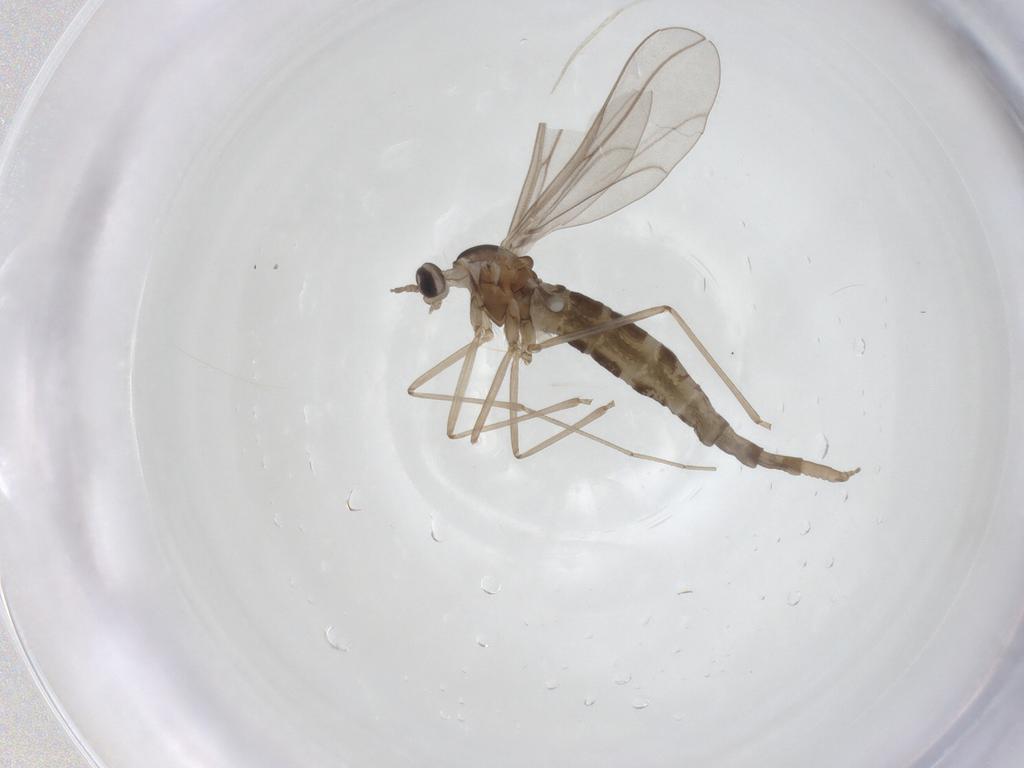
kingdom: Animalia
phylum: Arthropoda
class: Insecta
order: Diptera
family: Cecidomyiidae
